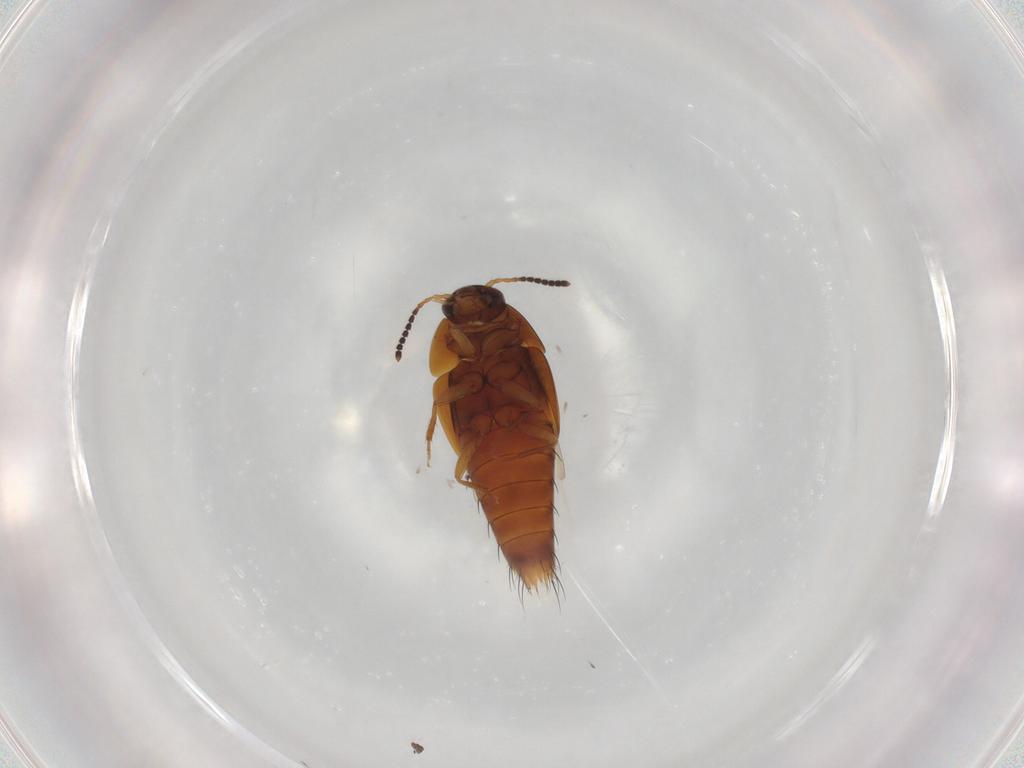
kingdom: Animalia
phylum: Arthropoda
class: Insecta
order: Coleoptera
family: Staphylinidae
